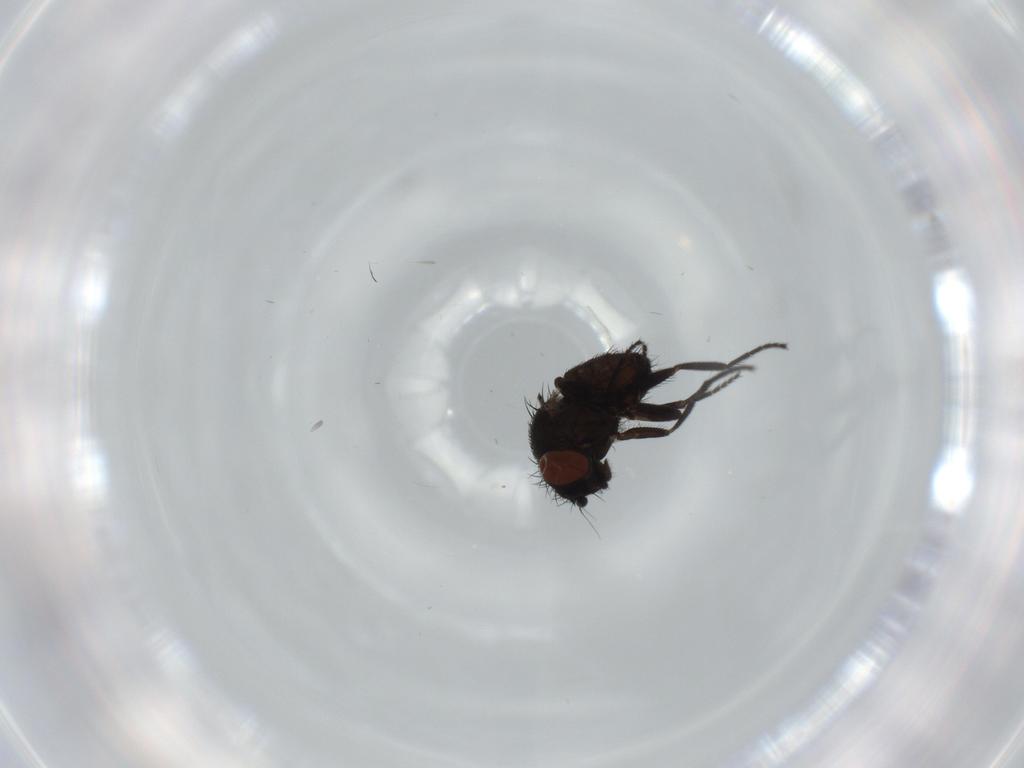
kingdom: Animalia
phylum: Arthropoda
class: Insecta
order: Diptera
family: Milichiidae
